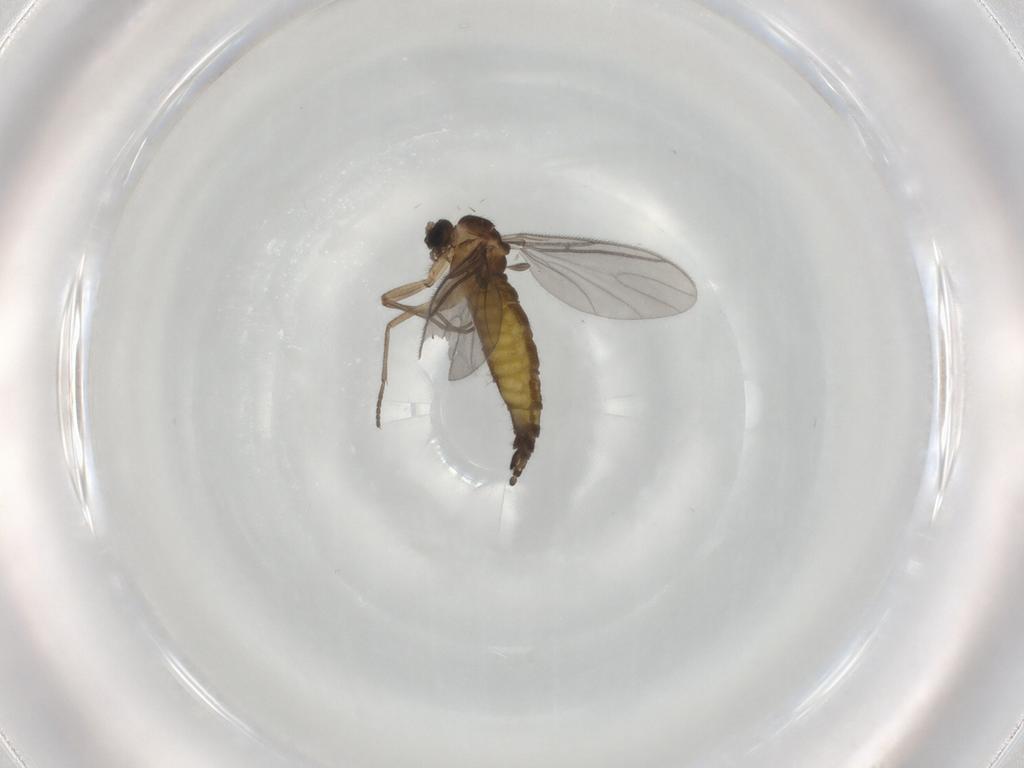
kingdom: Animalia
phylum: Arthropoda
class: Insecta
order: Diptera
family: Sciaridae
